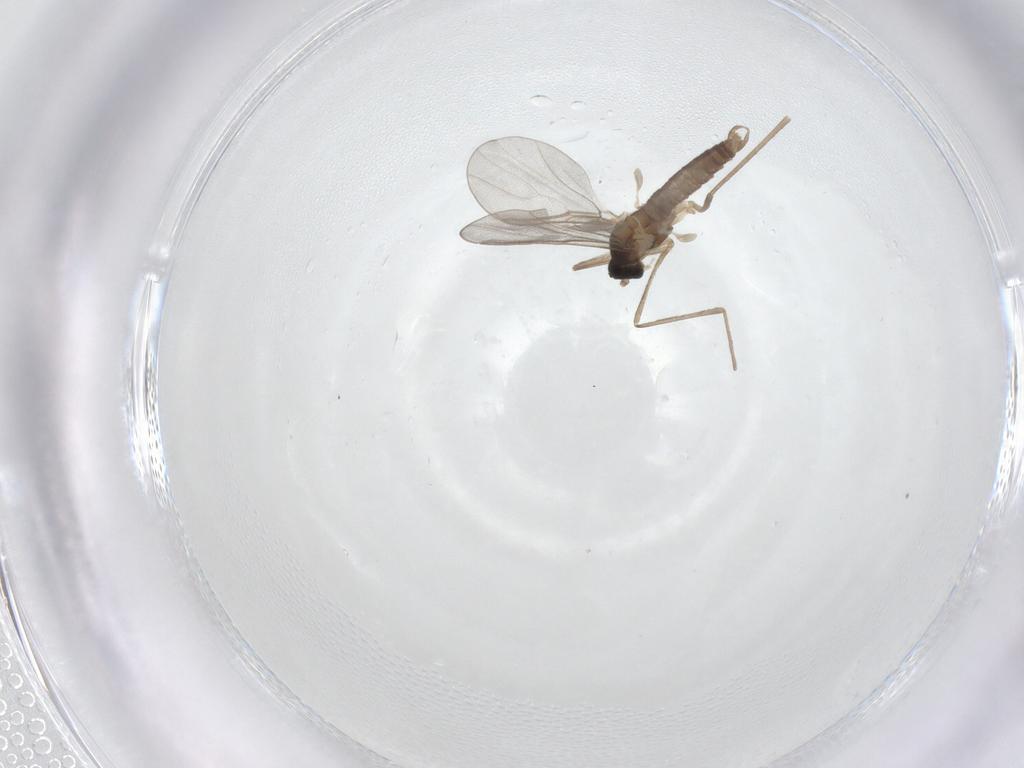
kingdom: Animalia
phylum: Arthropoda
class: Insecta
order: Diptera
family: Cecidomyiidae
